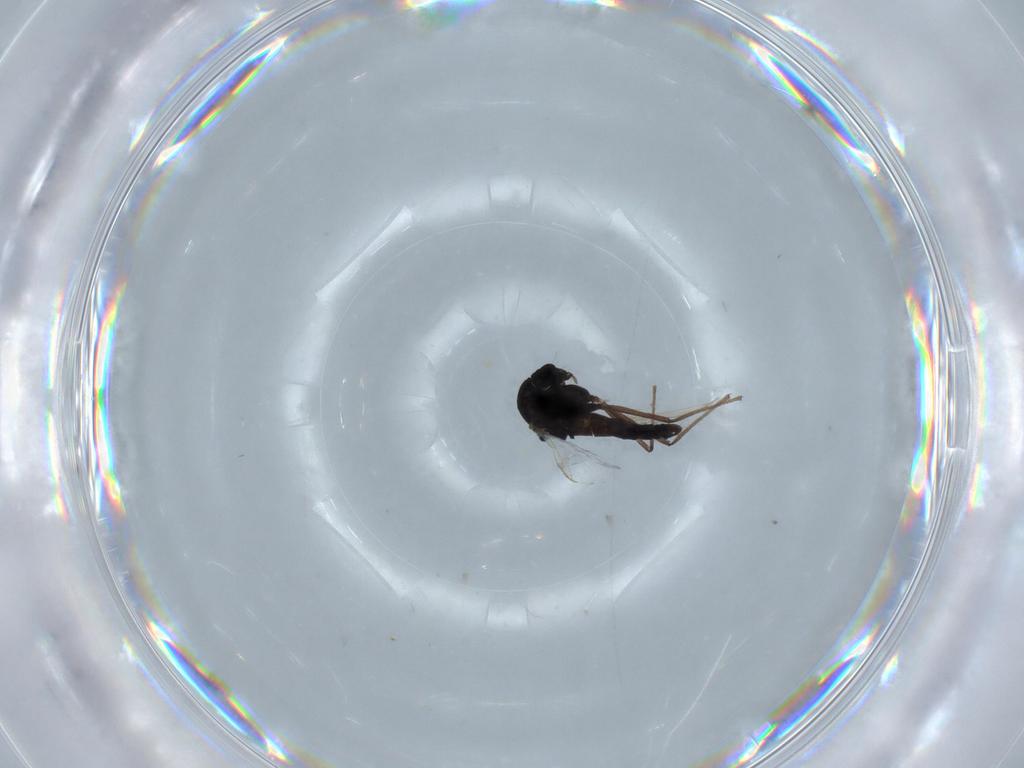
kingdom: Animalia
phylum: Arthropoda
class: Insecta
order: Diptera
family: Chironomidae
